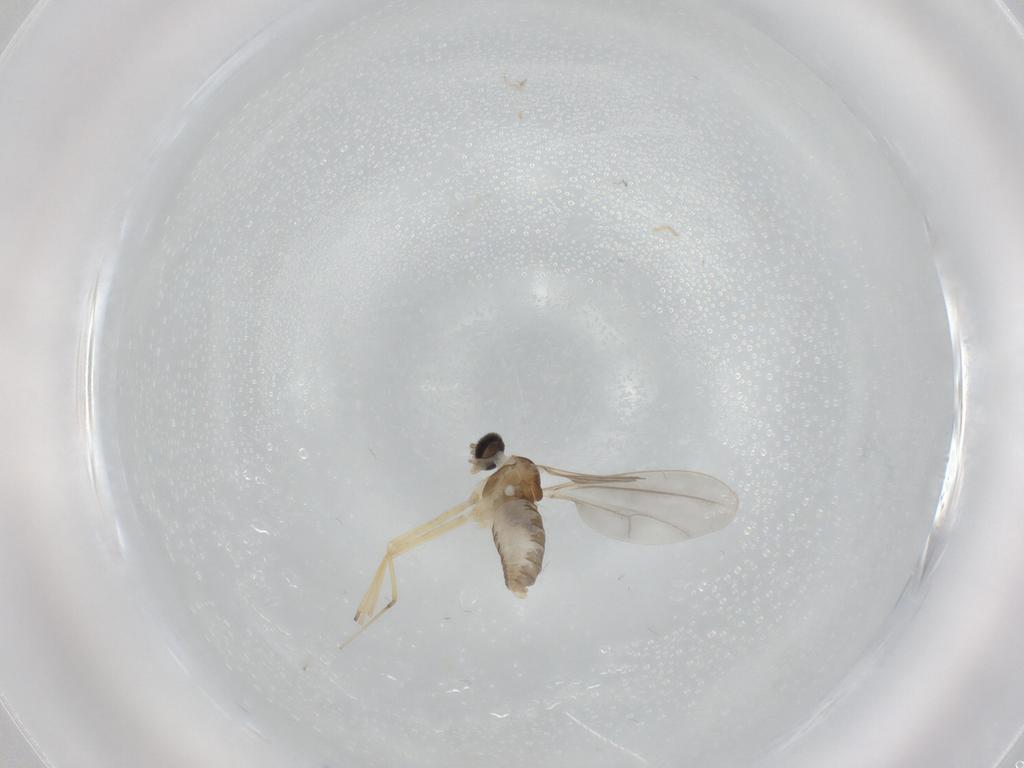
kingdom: Animalia
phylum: Arthropoda
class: Insecta
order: Diptera
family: Cecidomyiidae
